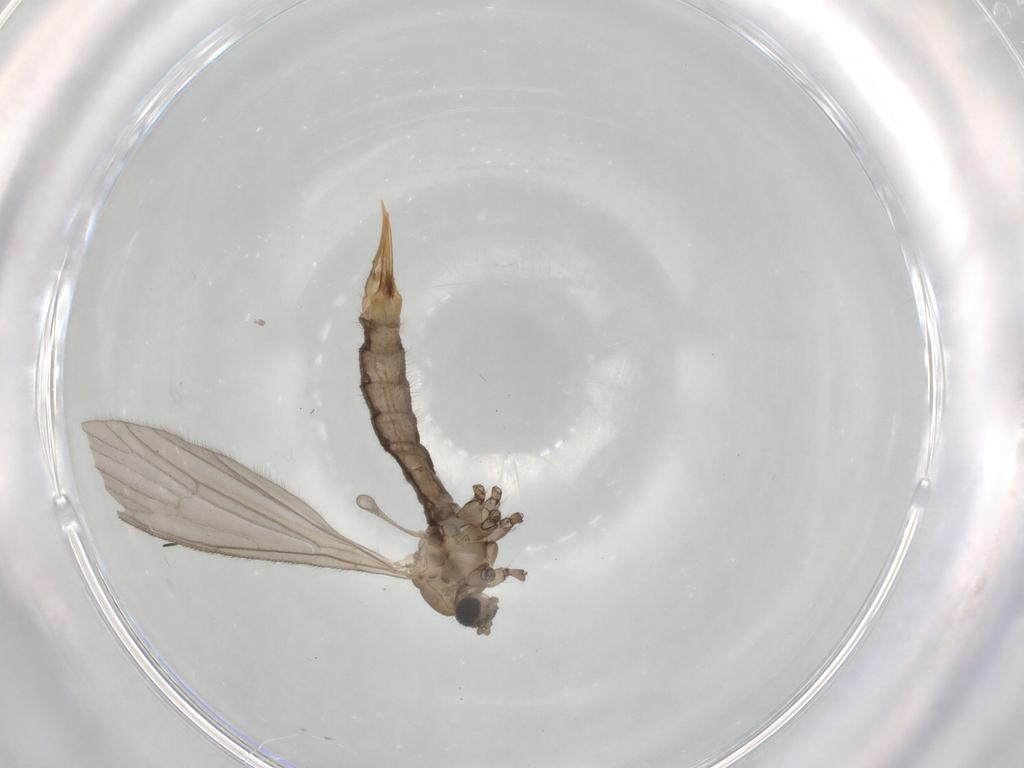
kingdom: Animalia
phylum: Arthropoda
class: Insecta
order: Diptera
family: Limoniidae
